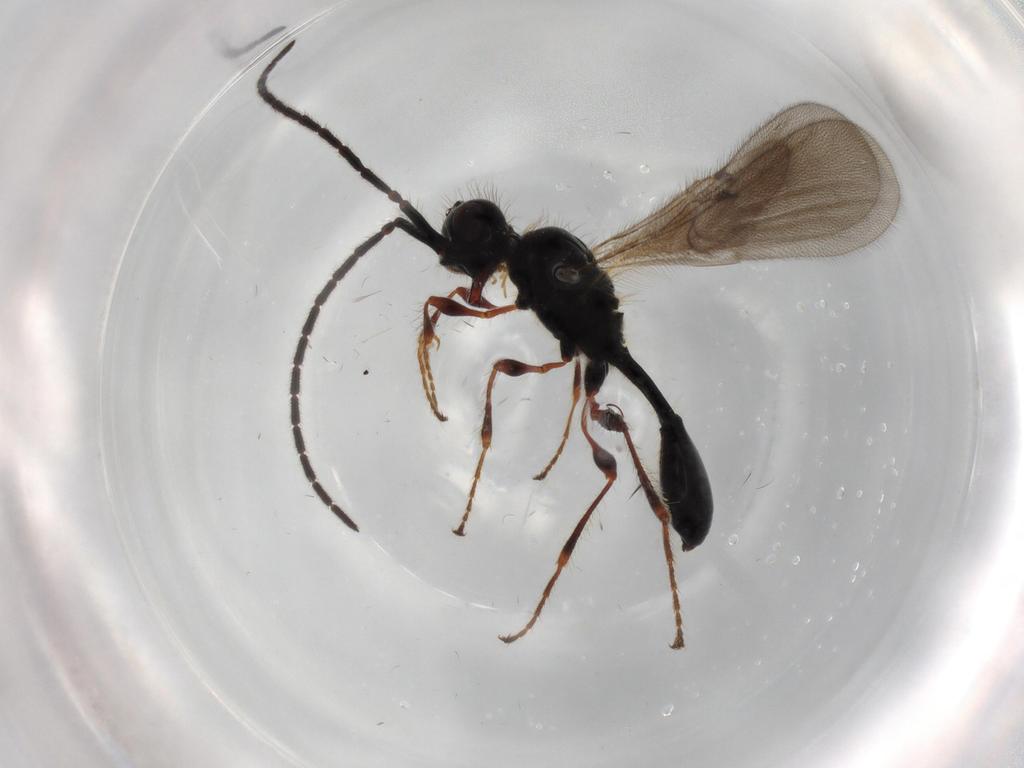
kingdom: Animalia
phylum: Arthropoda
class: Insecta
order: Hymenoptera
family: Diapriidae
